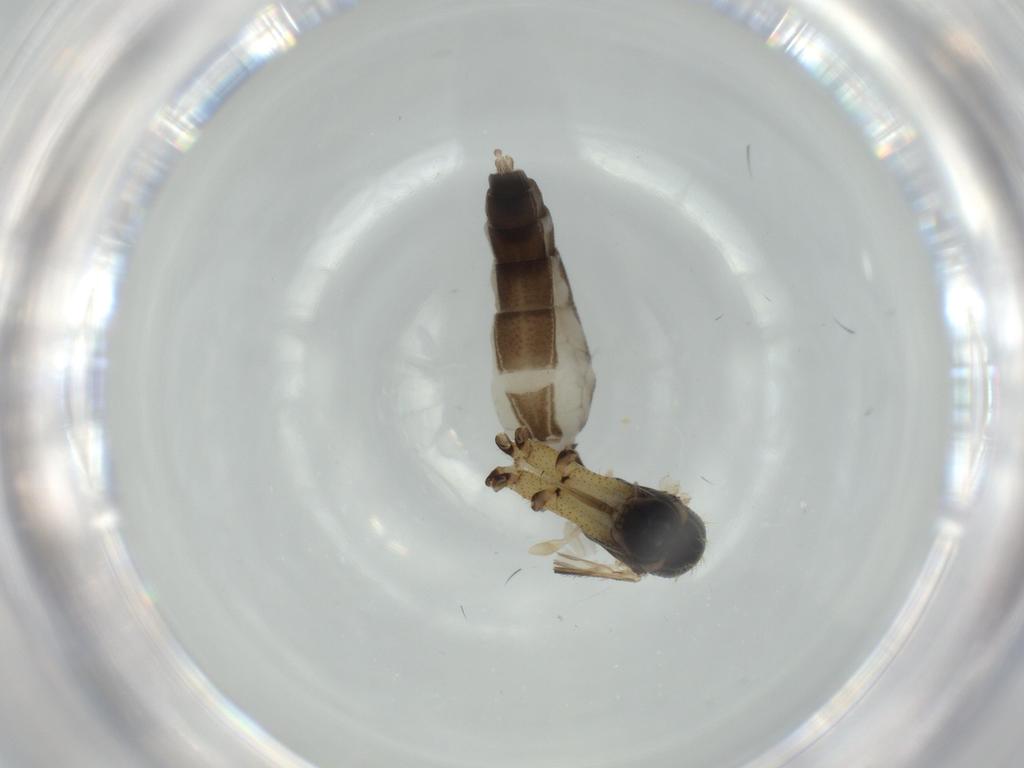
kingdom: Animalia
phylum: Arthropoda
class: Insecta
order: Diptera
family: Mycetophilidae
